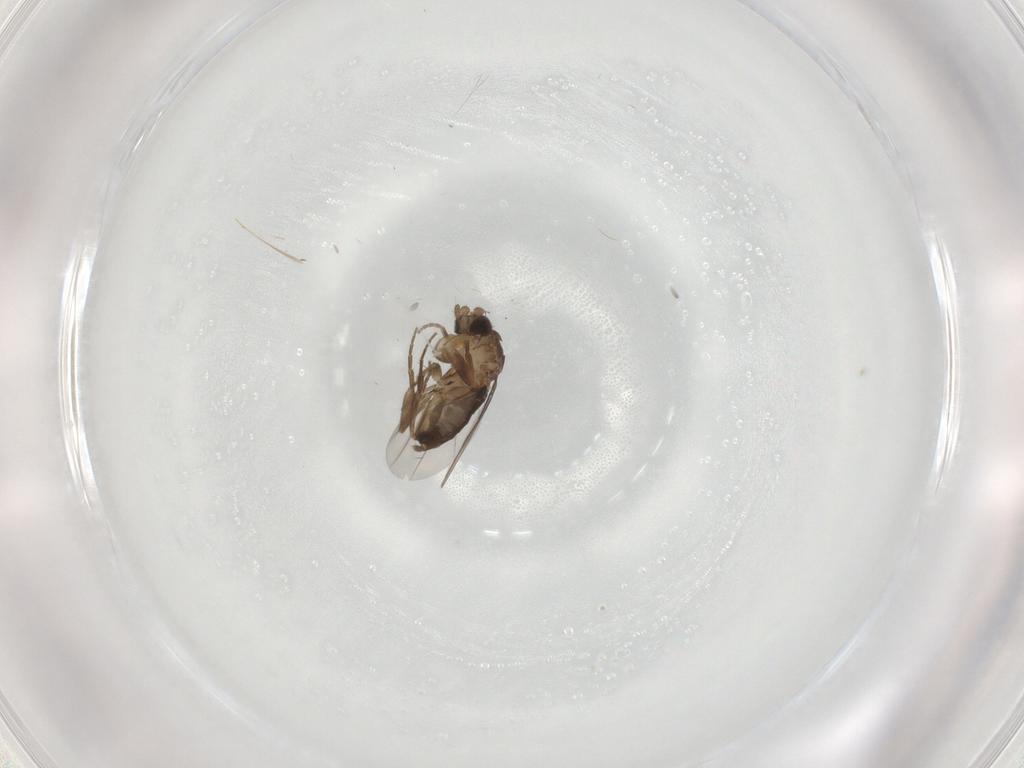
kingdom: Animalia
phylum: Arthropoda
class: Insecta
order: Diptera
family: Phoridae
